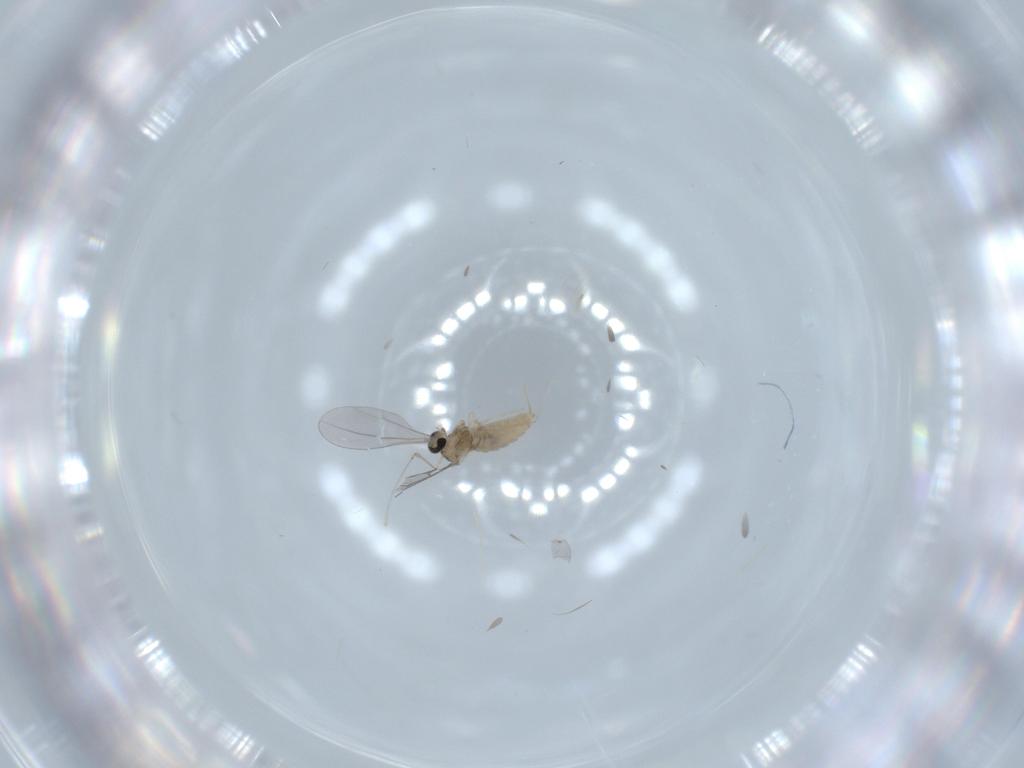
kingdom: Animalia
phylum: Arthropoda
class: Insecta
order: Diptera
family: Cecidomyiidae
